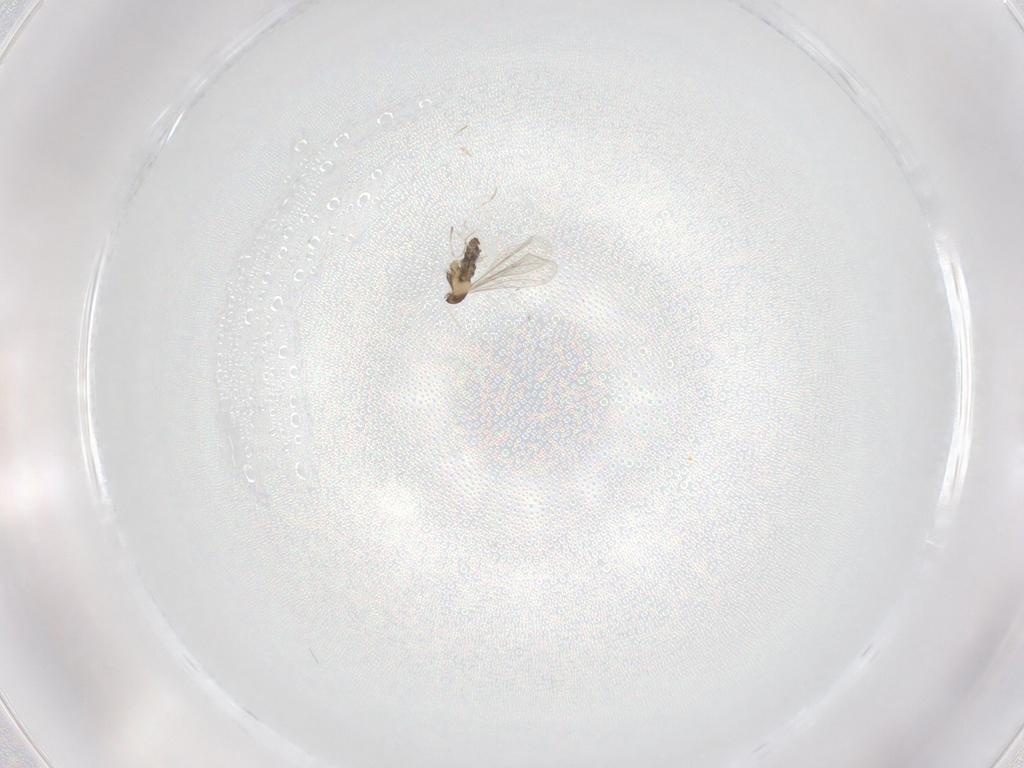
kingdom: Animalia
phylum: Arthropoda
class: Insecta
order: Diptera
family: Cecidomyiidae
